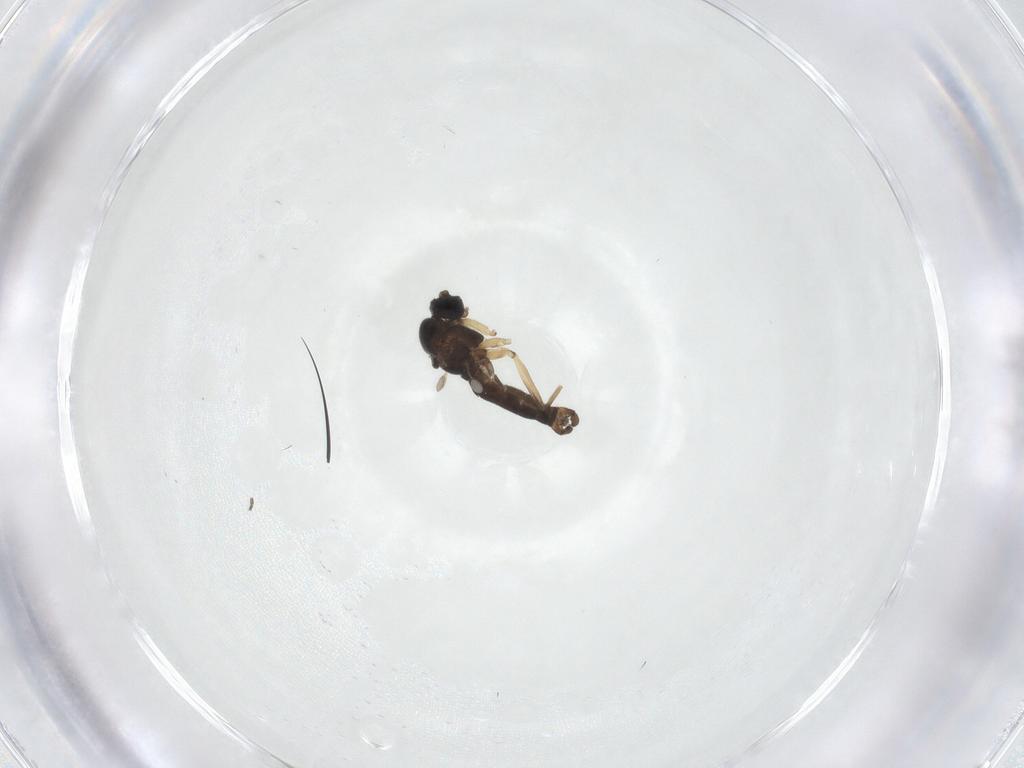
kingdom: Animalia
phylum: Arthropoda
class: Insecta
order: Diptera
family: Sciaridae
